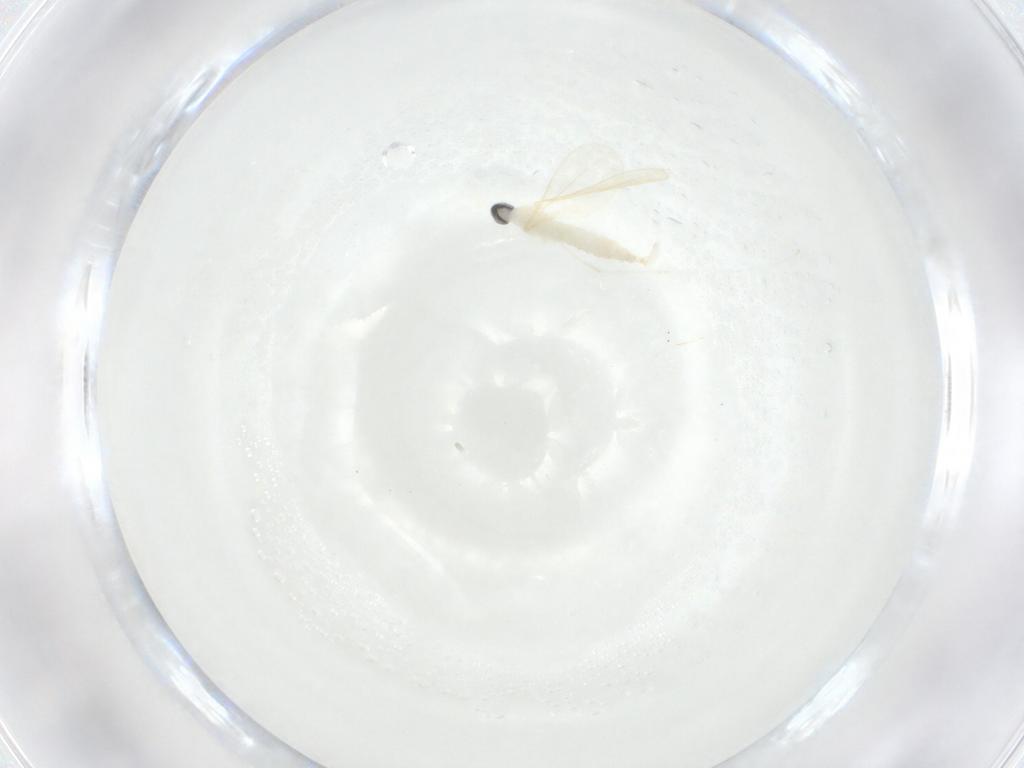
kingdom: Animalia
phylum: Arthropoda
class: Insecta
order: Diptera
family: Cecidomyiidae
